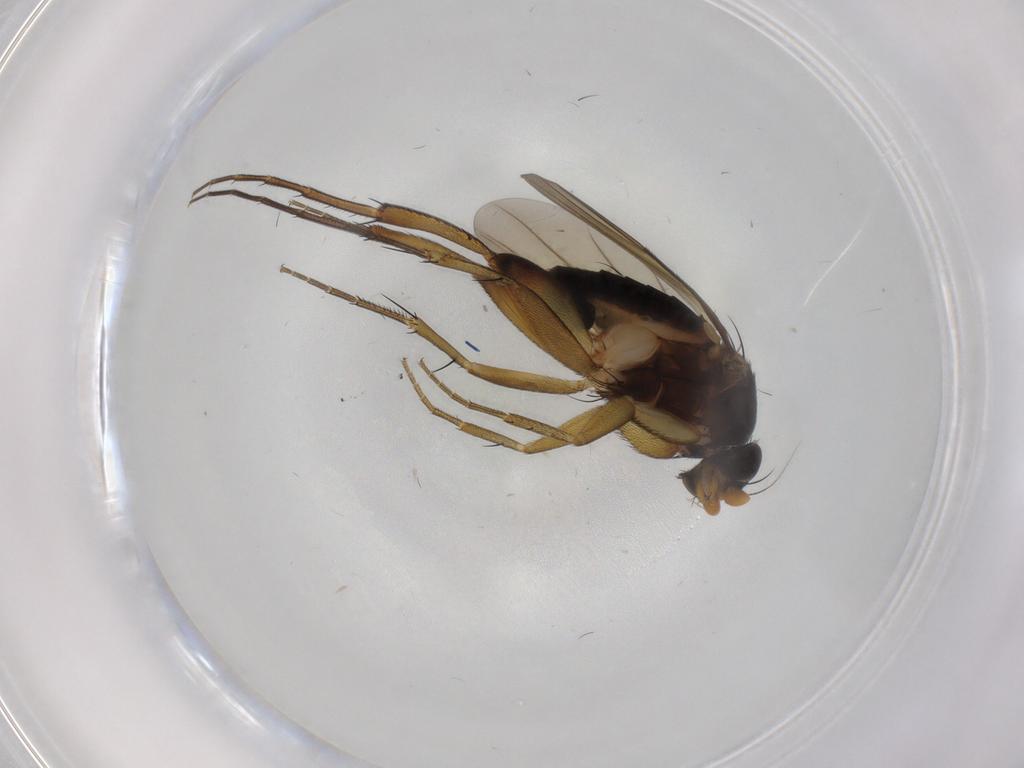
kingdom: Animalia
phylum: Arthropoda
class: Insecta
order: Diptera
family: Phoridae
